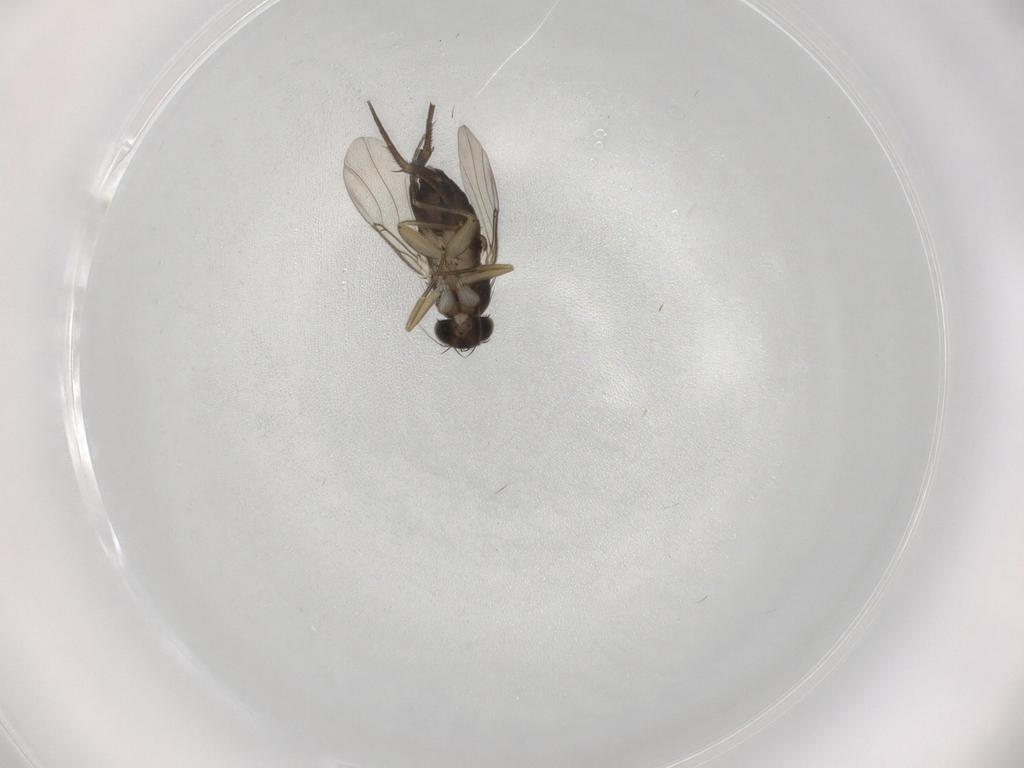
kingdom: Animalia
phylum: Arthropoda
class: Insecta
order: Diptera
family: Phoridae
